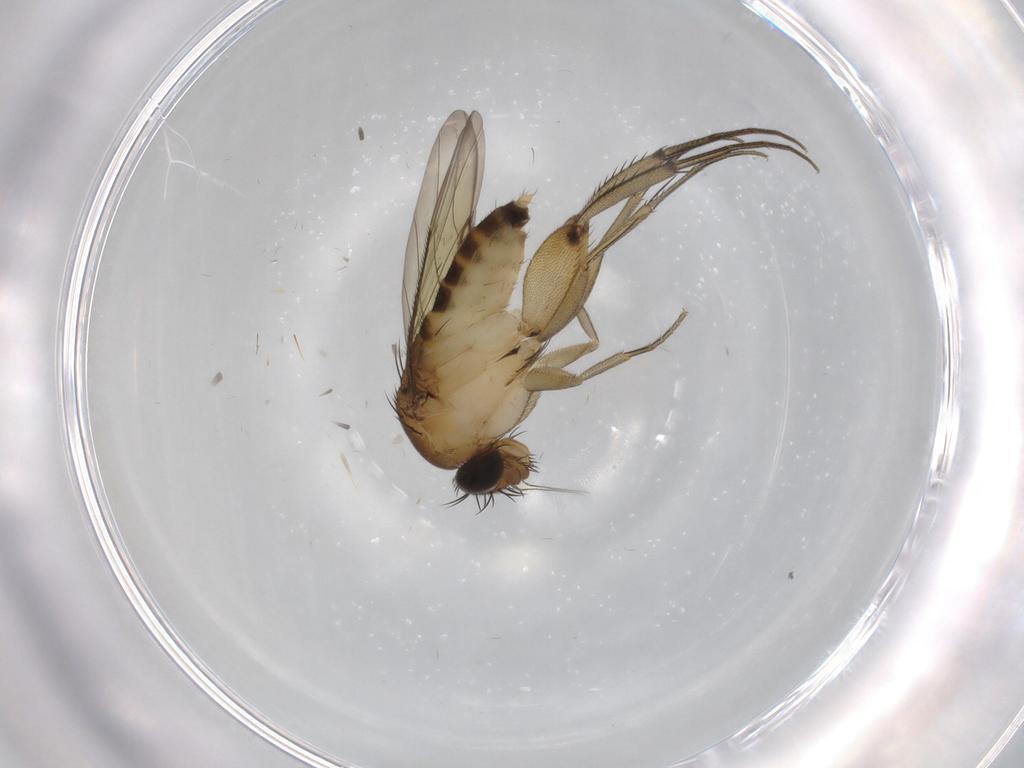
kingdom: Animalia
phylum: Arthropoda
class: Insecta
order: Diptera
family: Phoridae
